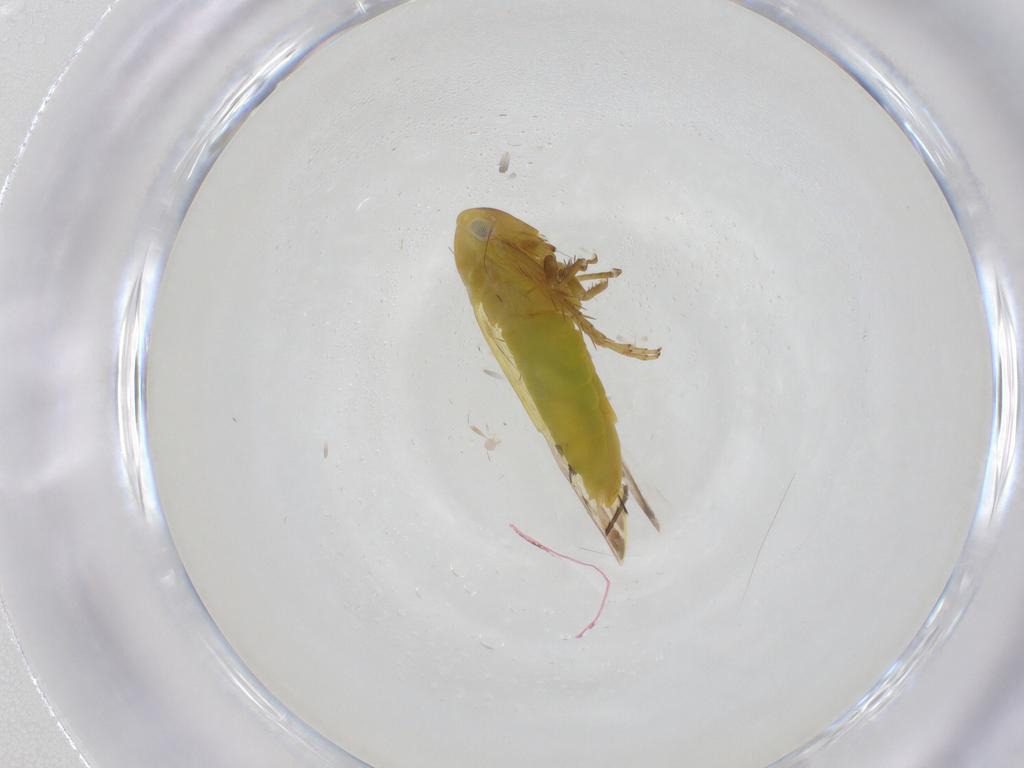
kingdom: Animalia
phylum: Arthropoda
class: Insecta
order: Hemiptera
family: Cicadellidae
